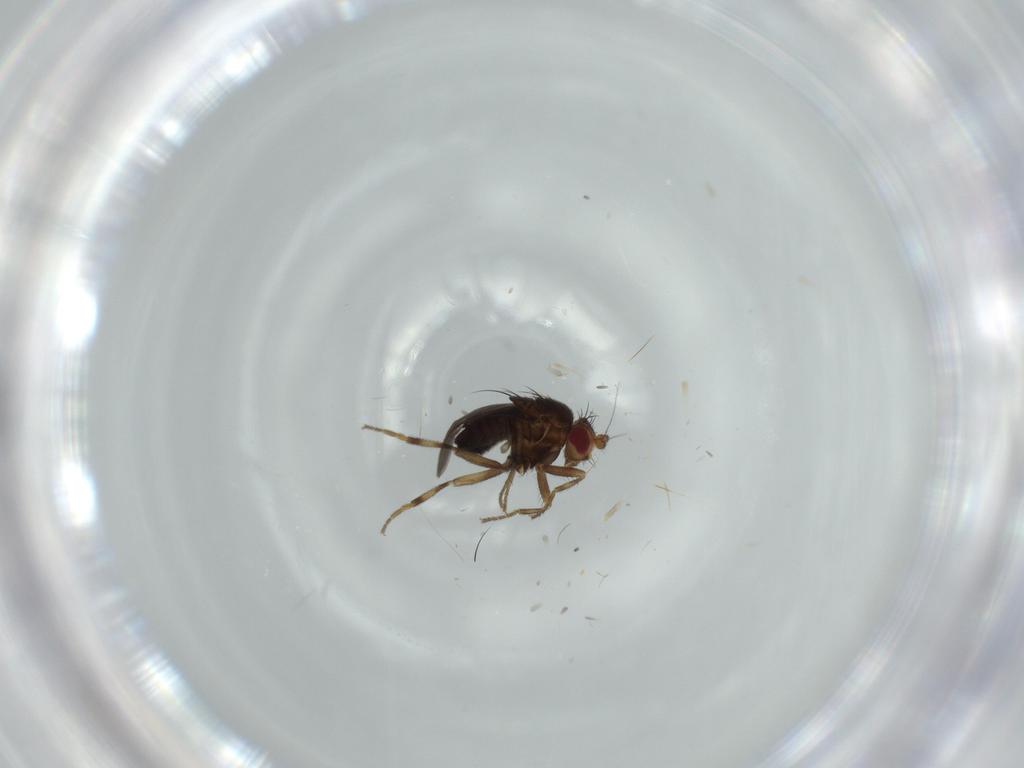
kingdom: Animalia
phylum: Arthropoda
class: Insecta
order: Diptera
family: Sphaeroceridae
